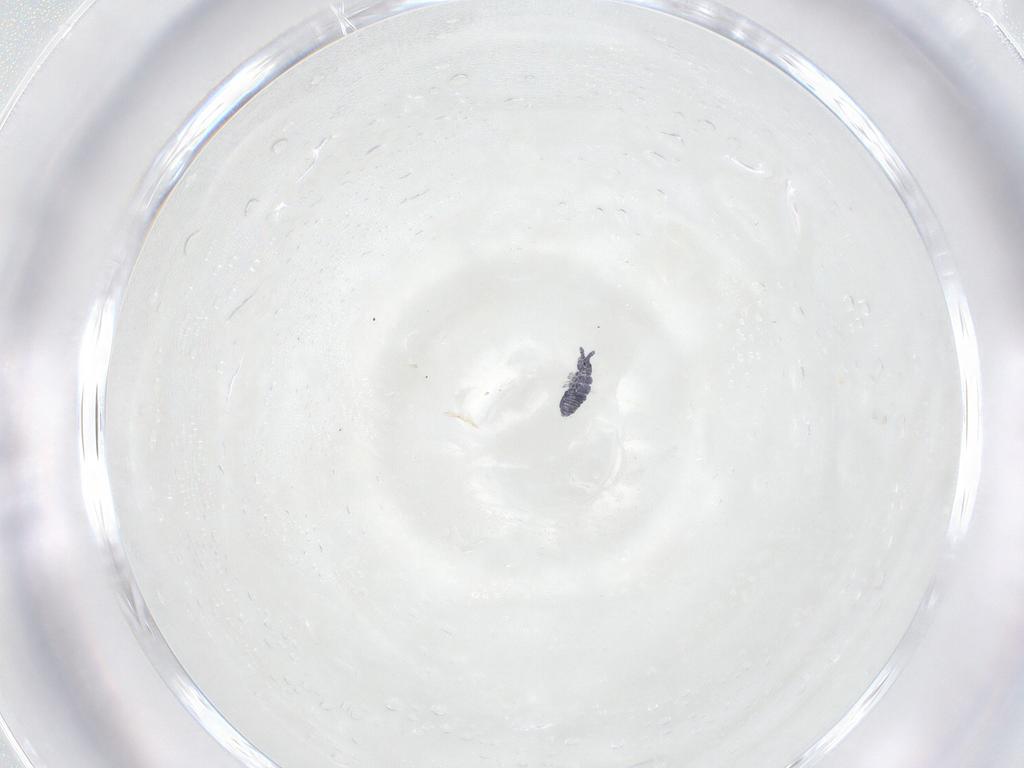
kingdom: Animalia
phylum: Arthropoda
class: Collembola
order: Poduromorpha
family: Hypogastruridae
